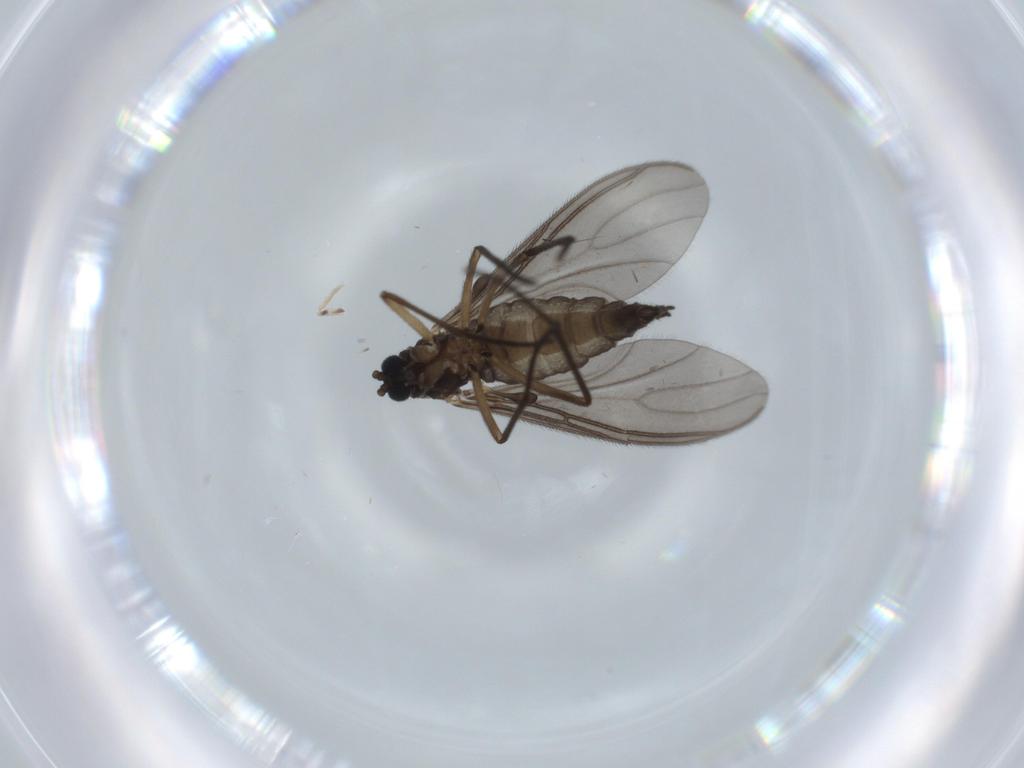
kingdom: Animalia
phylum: Arthropoda
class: Insecta
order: Diptera
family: Sciaridae
